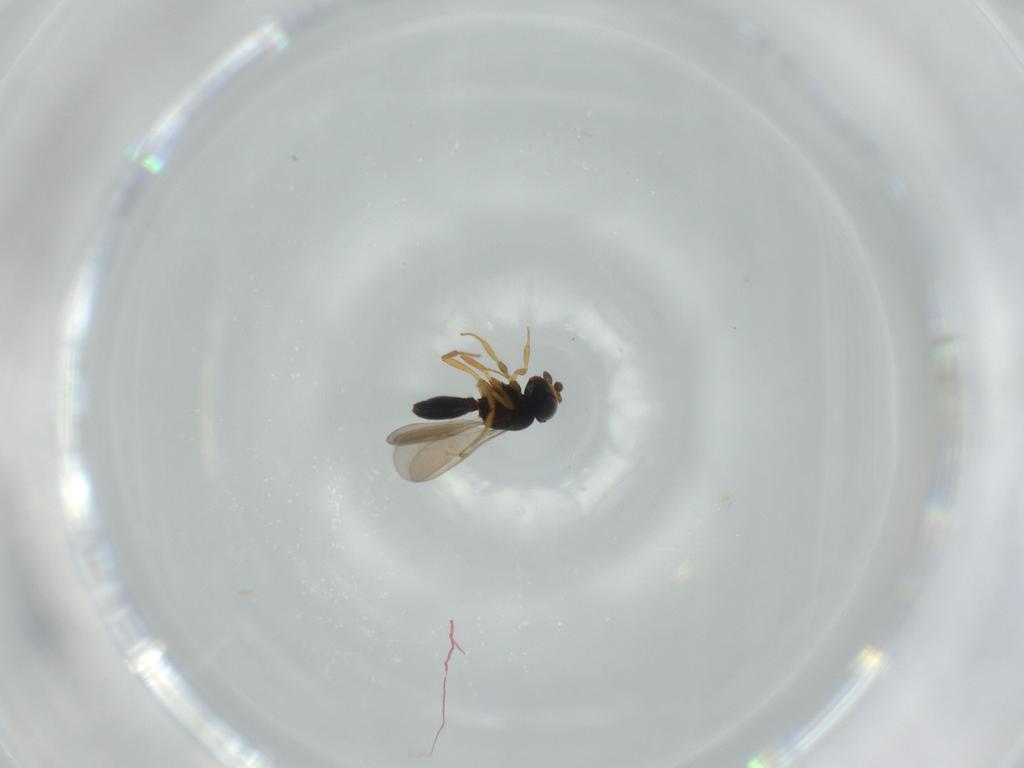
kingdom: Animalia
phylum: Arthropoda
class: Insecta
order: Hymenoptera
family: Scelionidae
